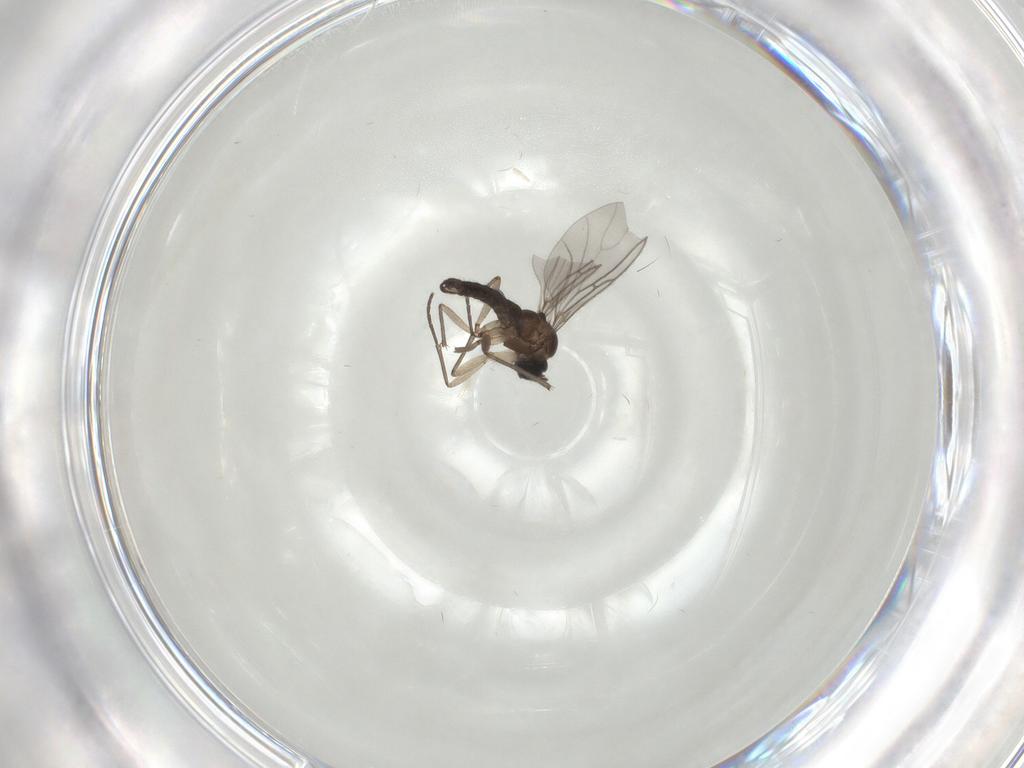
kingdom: Animalia
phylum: Arthropoda
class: Insecta
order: Diptera
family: Sciaridae
